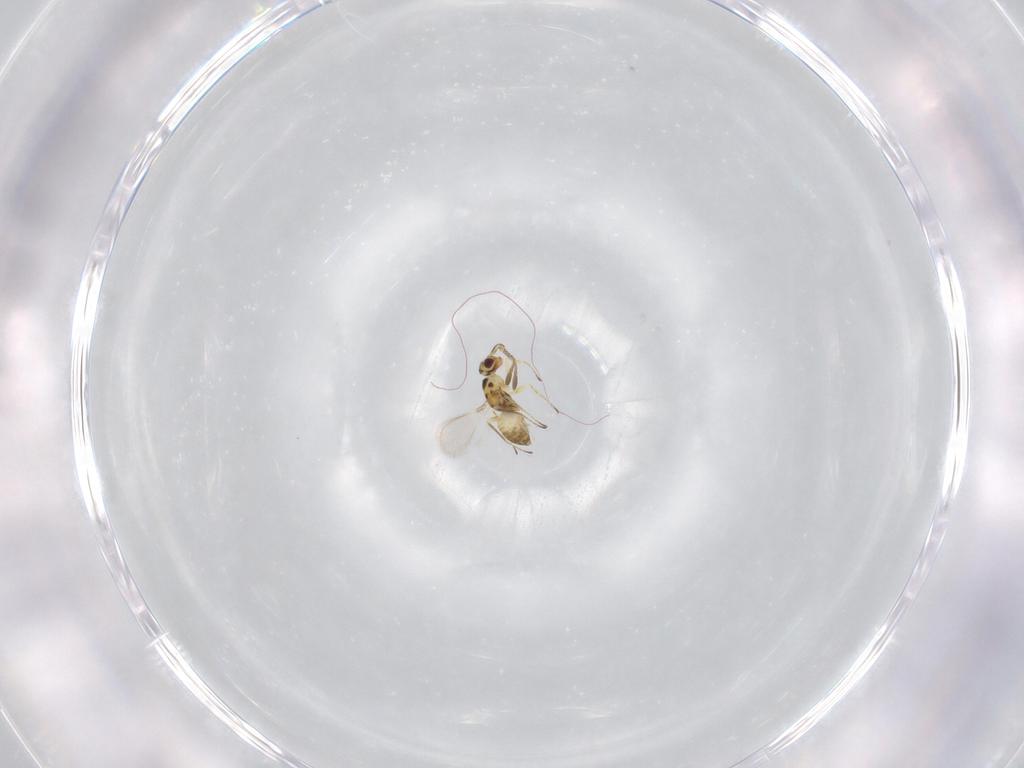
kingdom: Animalia
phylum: Arthropoda
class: Insecta
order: Hymenoptera
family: Mymaridae
